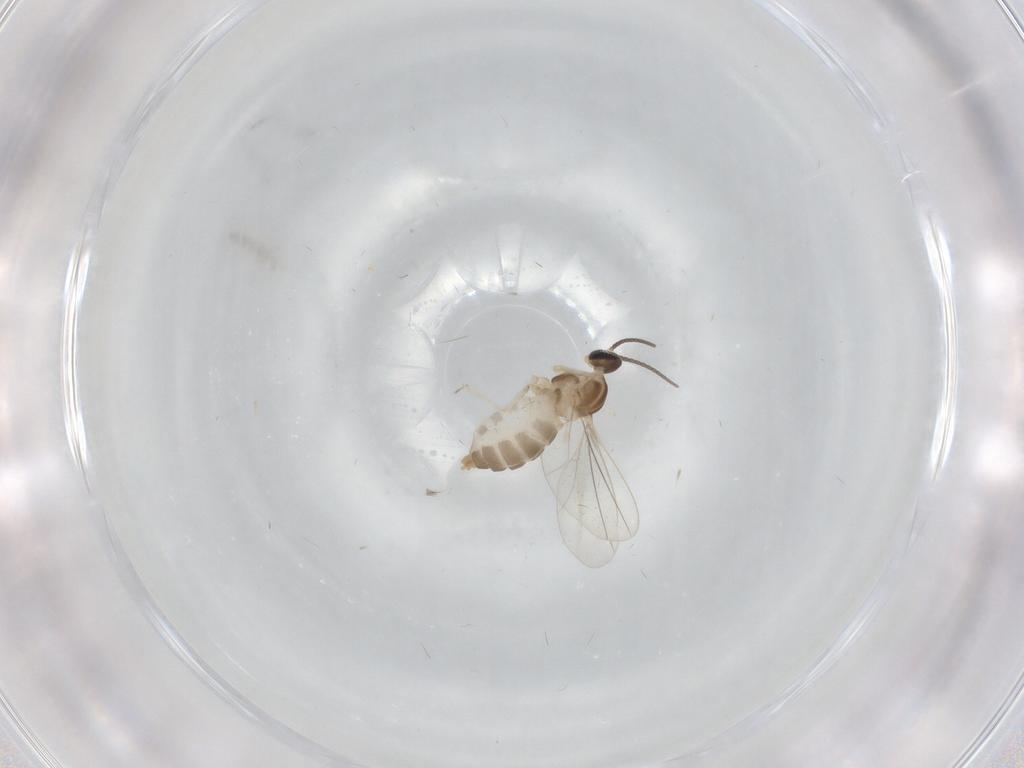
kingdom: Animalia
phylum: Arthropoda
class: Insecta
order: Diptera
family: Cecidomyiidae
